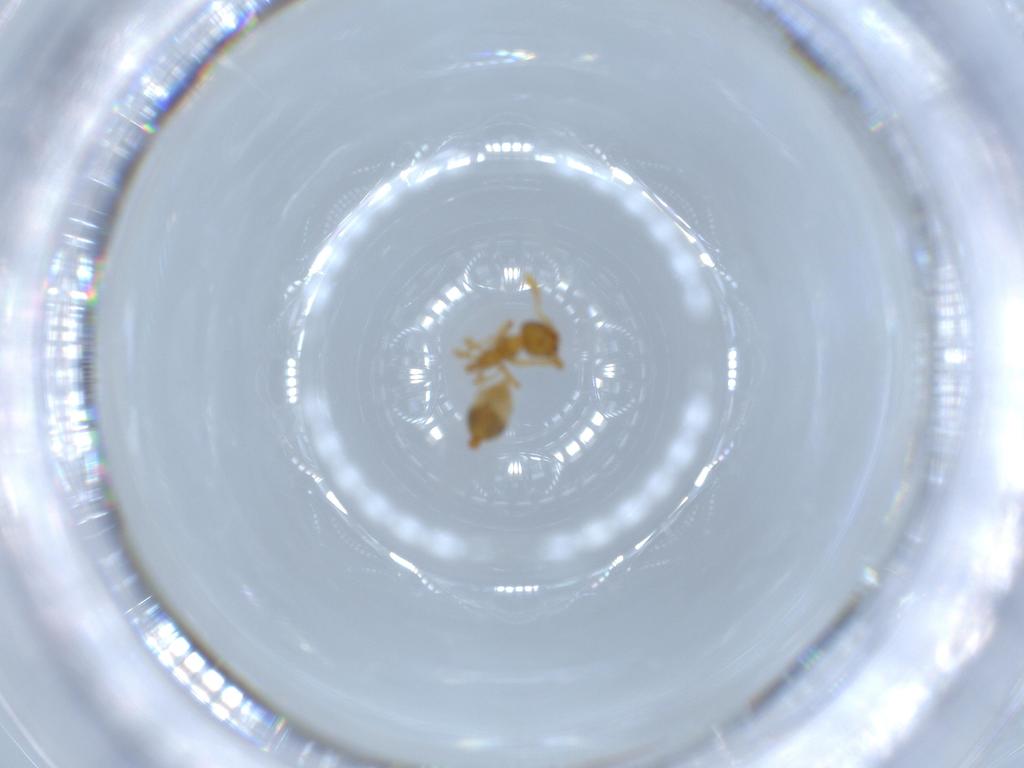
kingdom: Animalia
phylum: Arthropoda
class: Insecta
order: Hymenoptera
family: Formicidae
